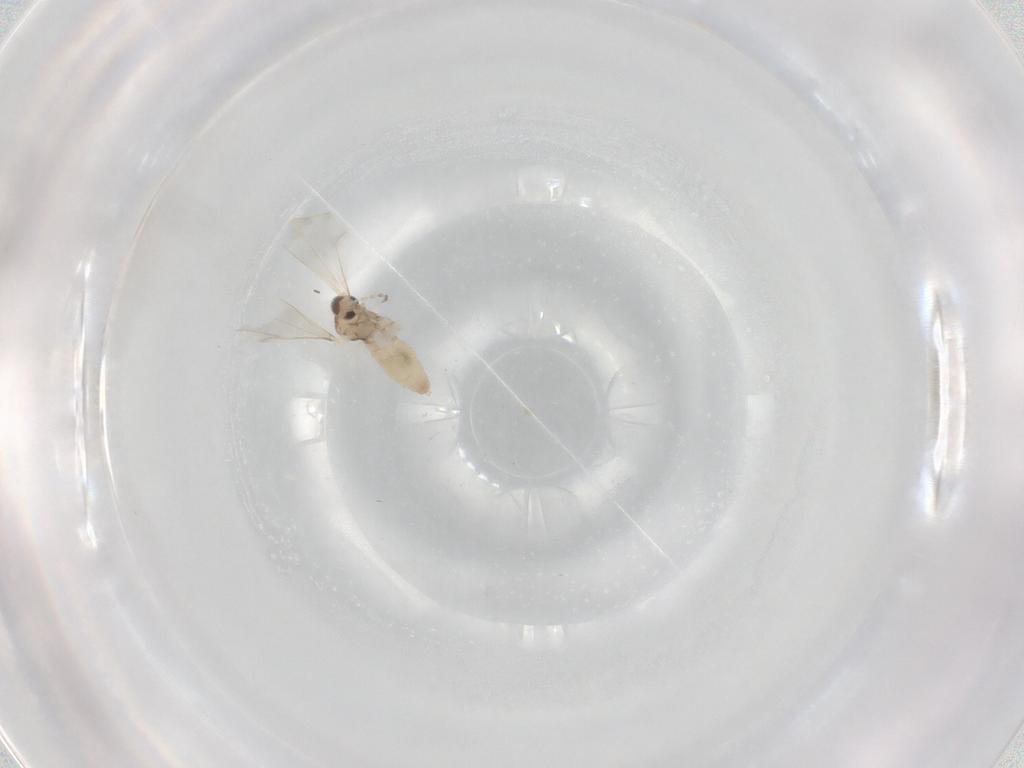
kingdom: Animalia
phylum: Arthropoda
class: Insecta
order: Diptera
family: Cecidomyiidae
